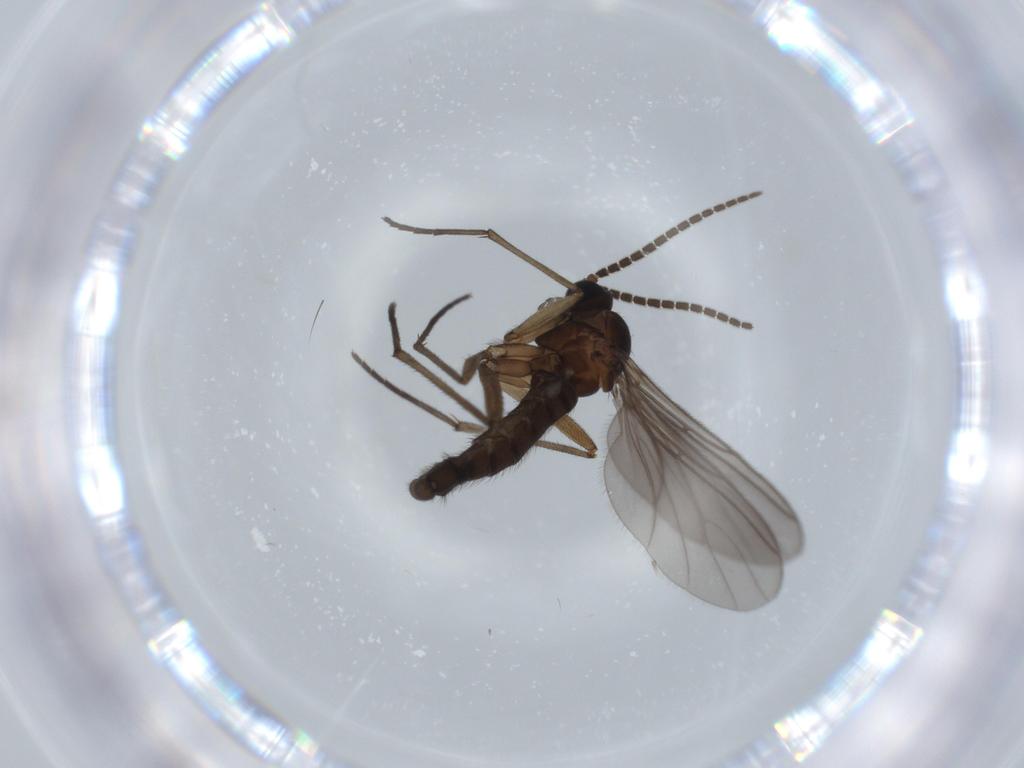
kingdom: Animalia
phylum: Arthropoda
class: Insecta
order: Diptera
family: Sciaridae
